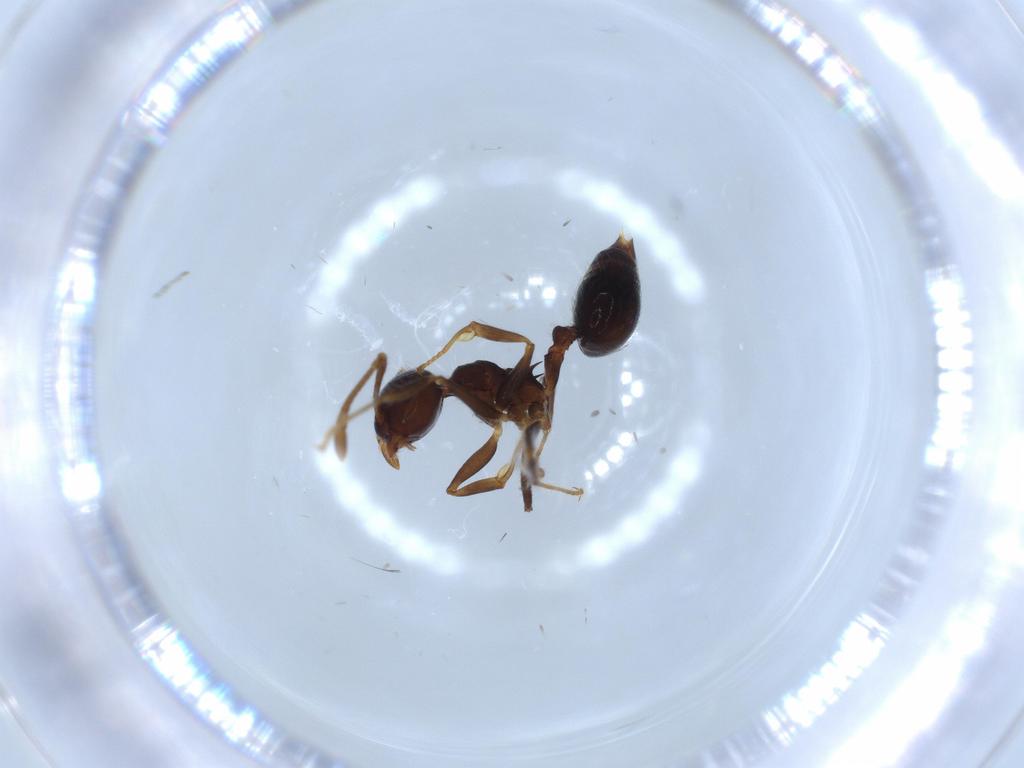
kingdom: Animalia
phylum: Arthropoda
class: Insecta
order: Hymenoptera
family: Formicidae
